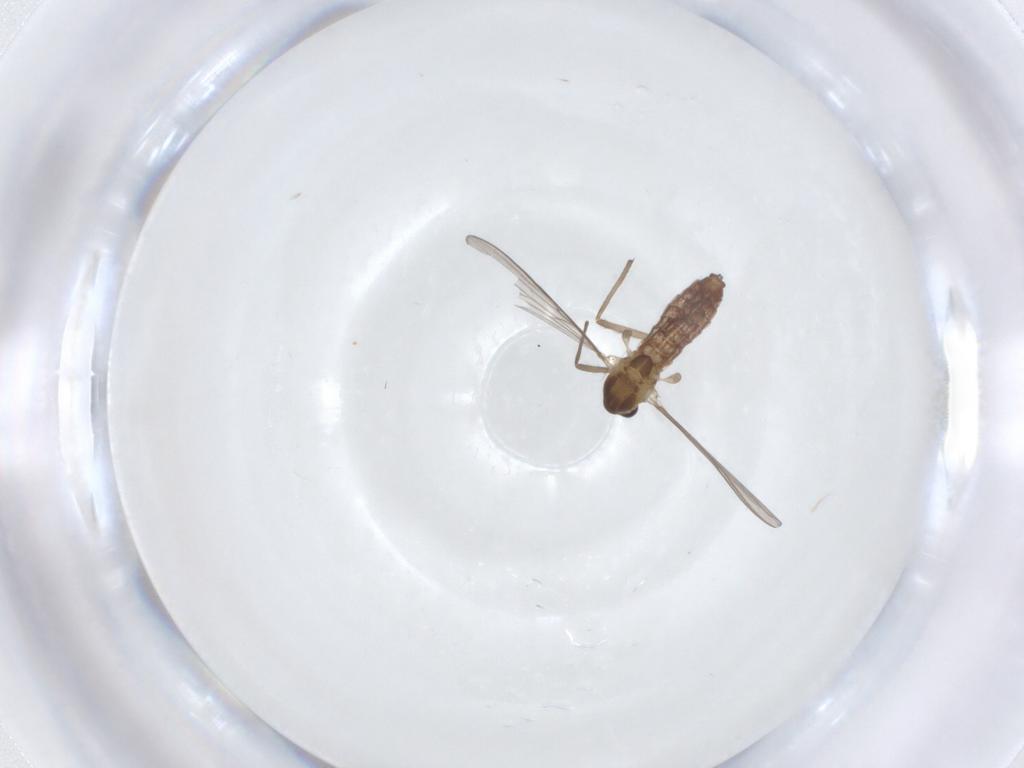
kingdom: Animalia
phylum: Arthropoda
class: Insecta
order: Diptera
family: Chironomidae
